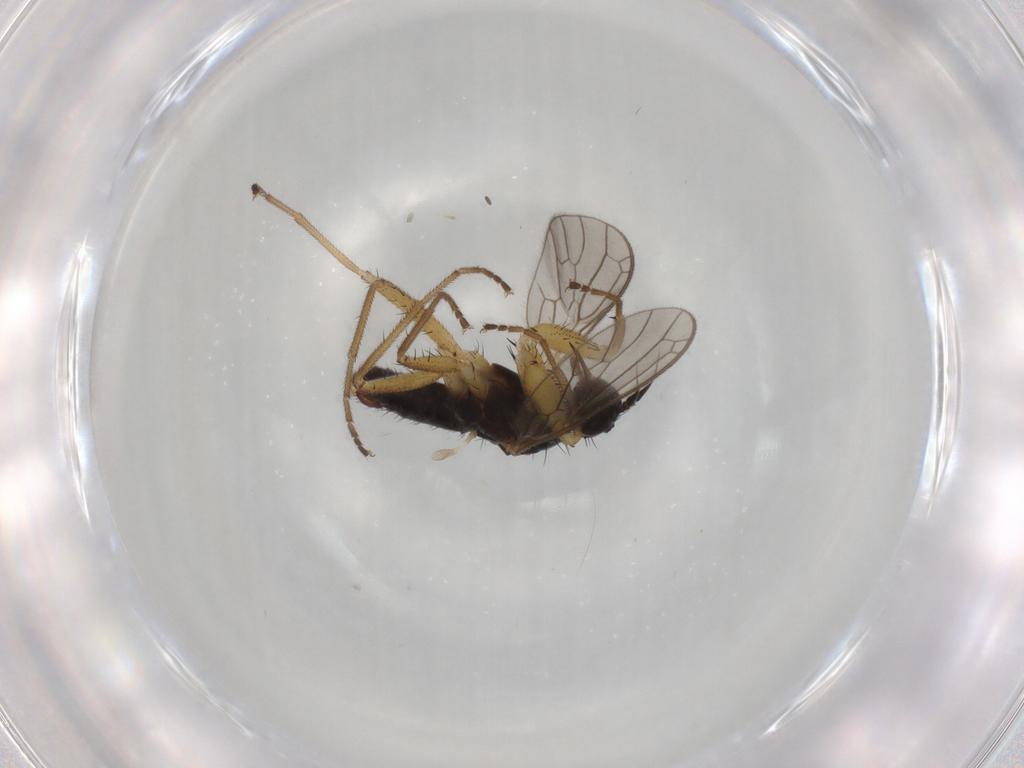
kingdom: Animalia
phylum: Arthropoda
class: Insecta
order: Diptera
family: Empididae
